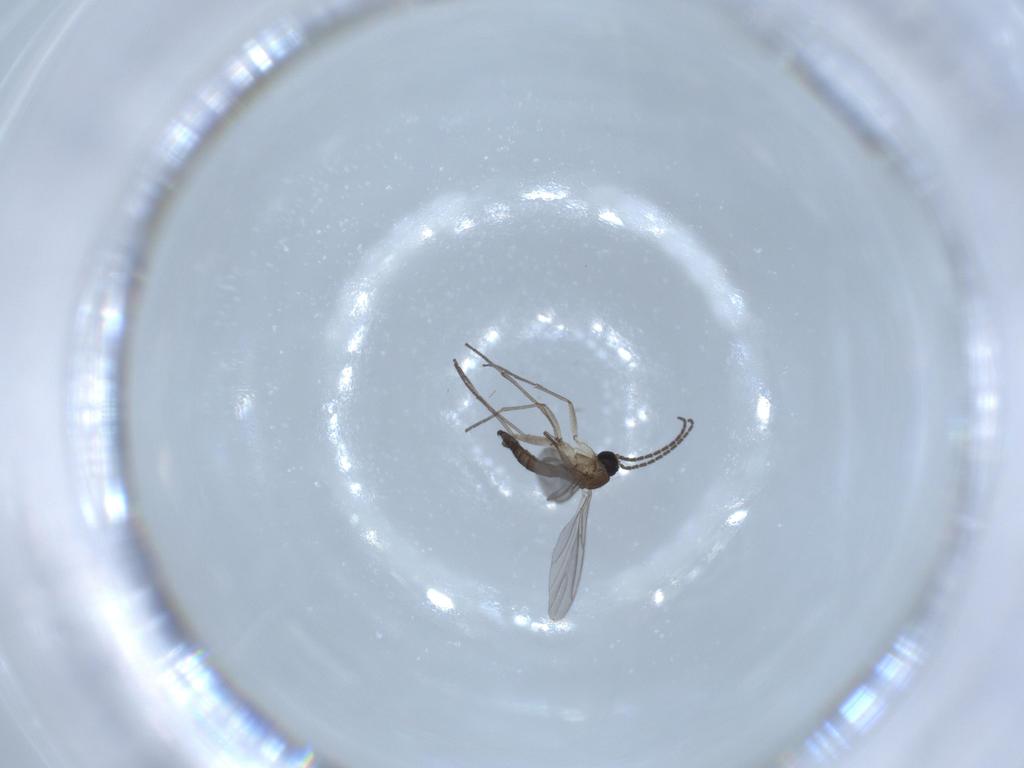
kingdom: Animalia
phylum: Arthropoda
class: Insecta
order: Diptera
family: Sciaridae
